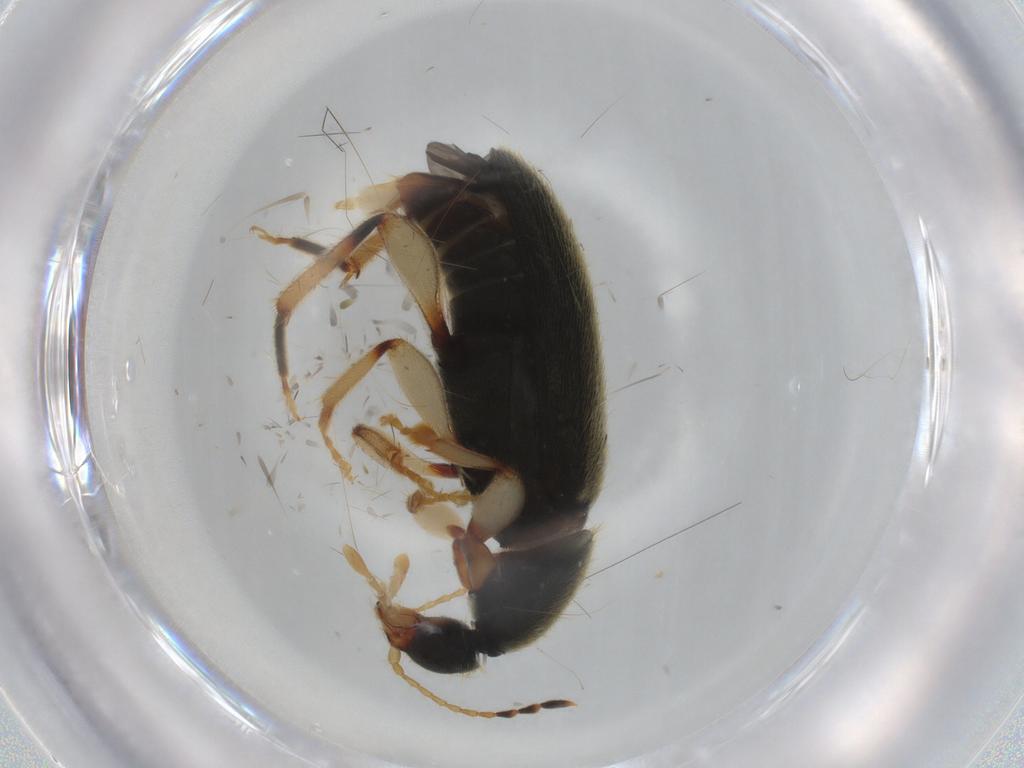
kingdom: Animalia
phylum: Arthropoda
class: Insecta
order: Coleoptera
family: Anthicidae
